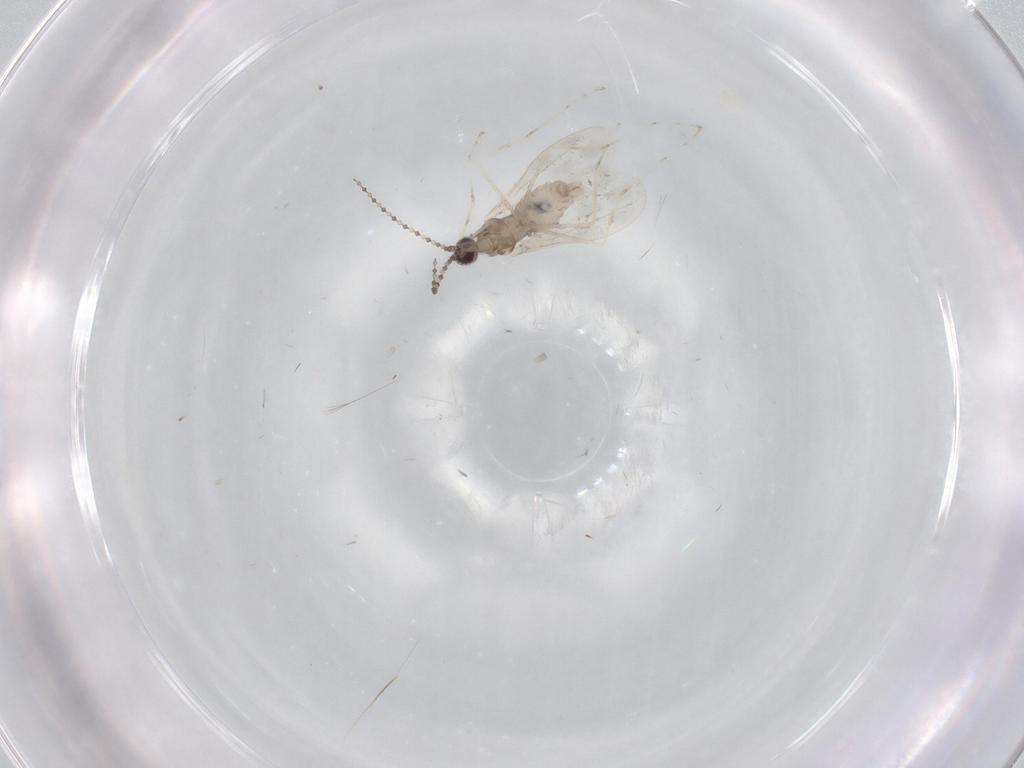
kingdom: Animalia
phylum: Arthropoda
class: Insecta
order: Diptera
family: Cecidomyiidae
